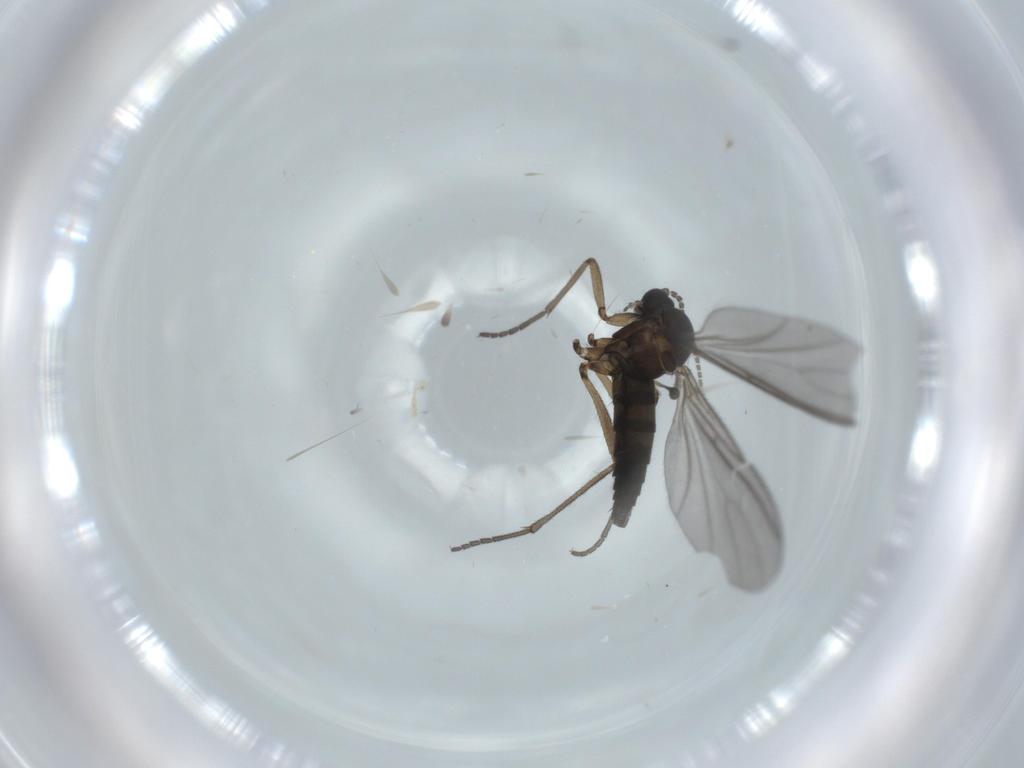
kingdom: Animalia
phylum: Arthropoda
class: Insecta
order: Diptera
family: Sciaridae
